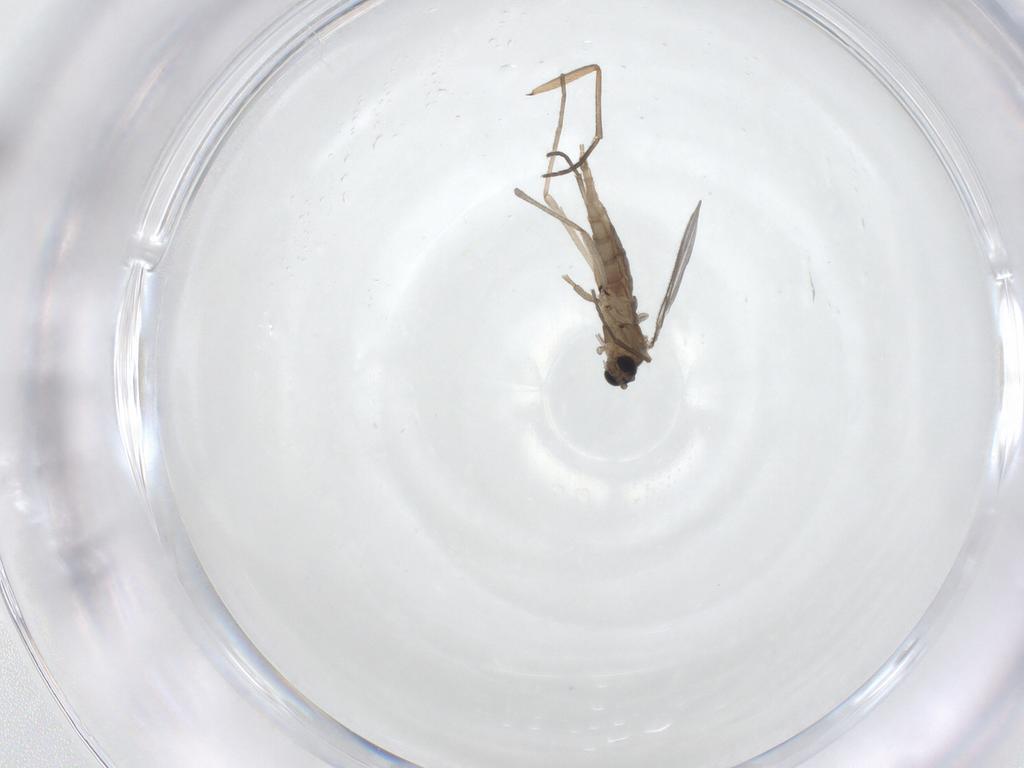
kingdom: Animalia
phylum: Arthropoda
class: Insecta
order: Diptera
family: Sciaridae
